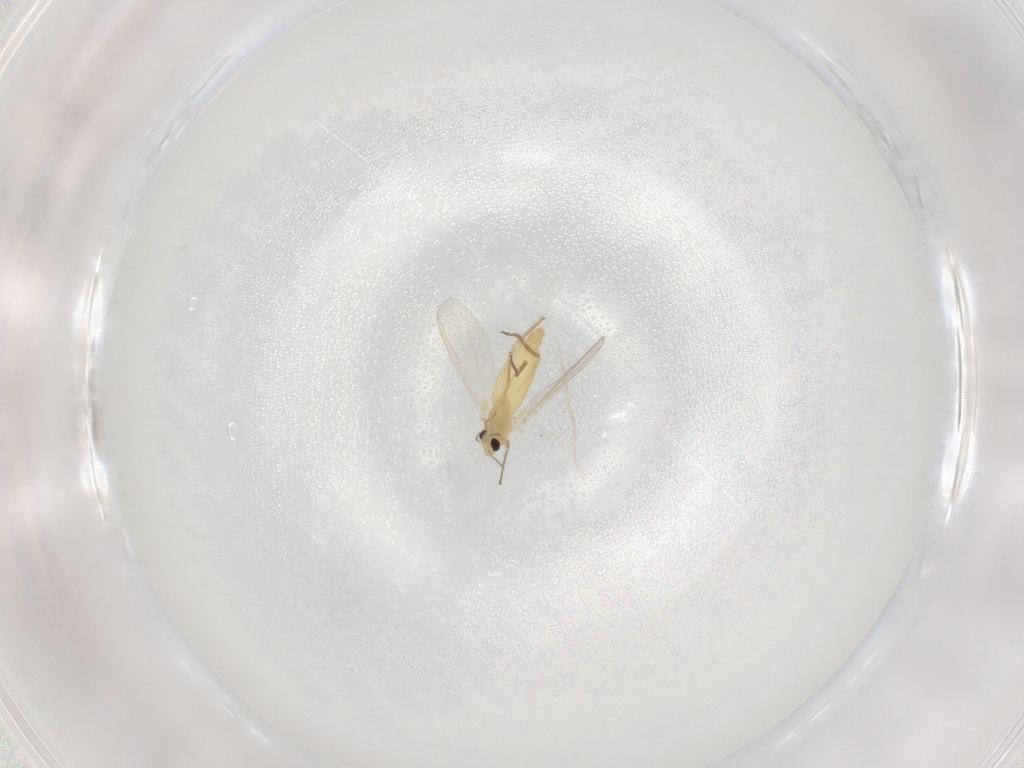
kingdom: Animalia
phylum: Arthropoda
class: Insecta
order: Diptera
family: Chironomidae
